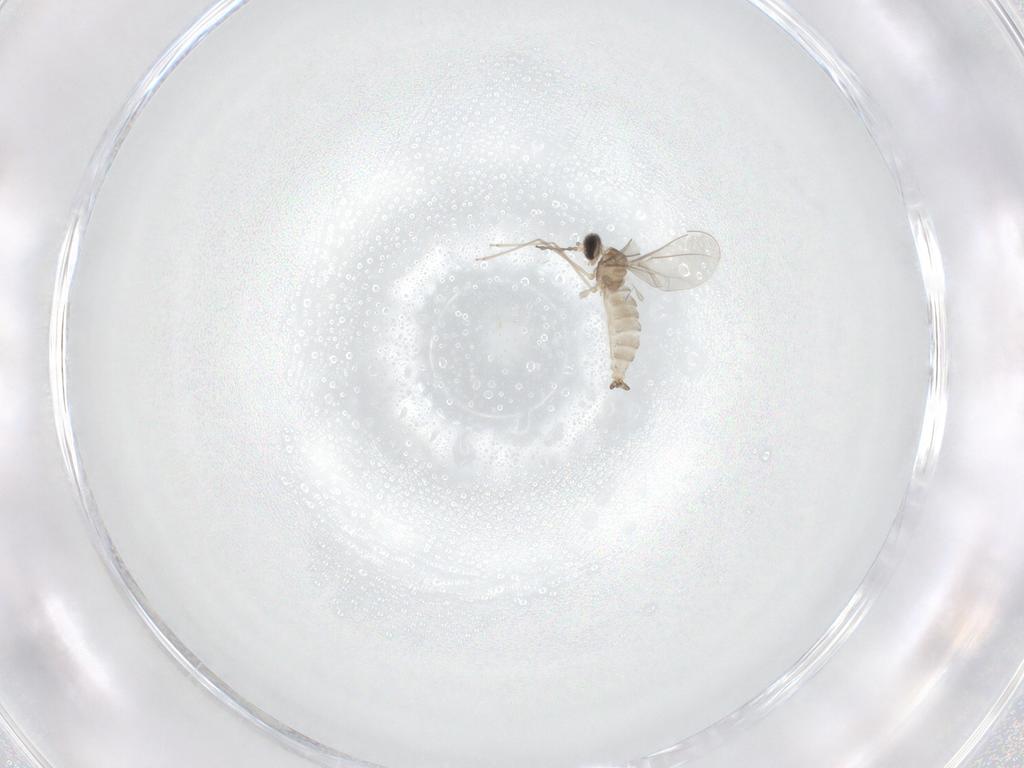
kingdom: Animalia
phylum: Arthropoda
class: Insecta
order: Diptera
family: Cecidomyiidae
